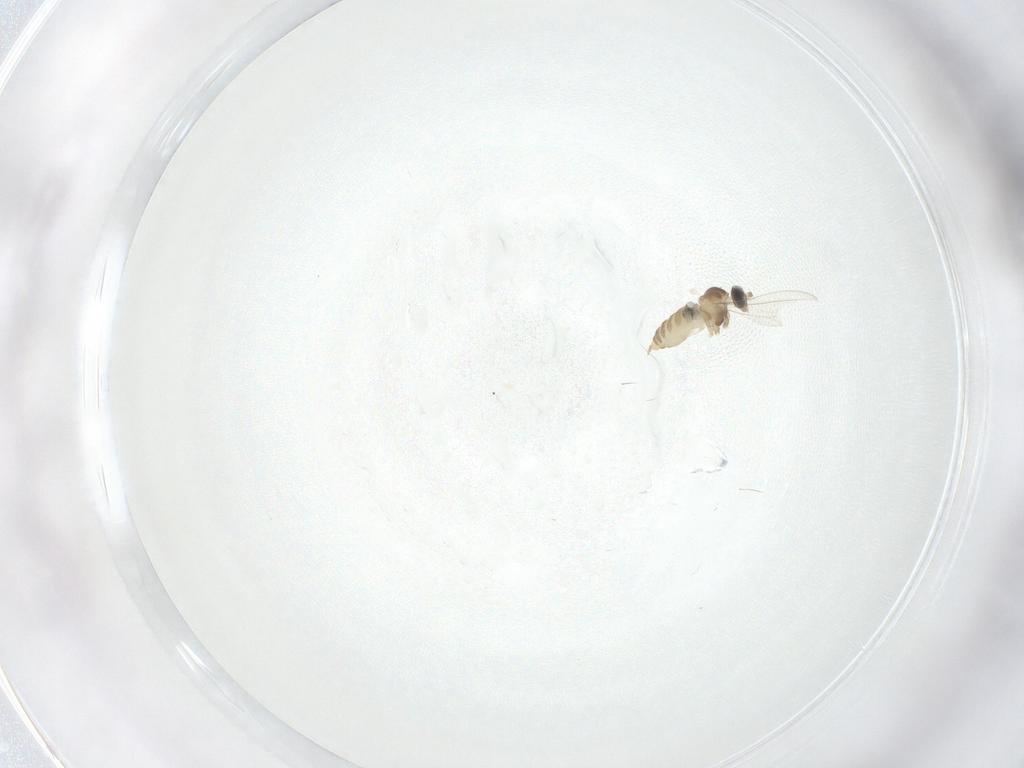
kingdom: Animalia
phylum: Arthropoda
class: Insecta
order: Diptera
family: Cecidomyiidae
